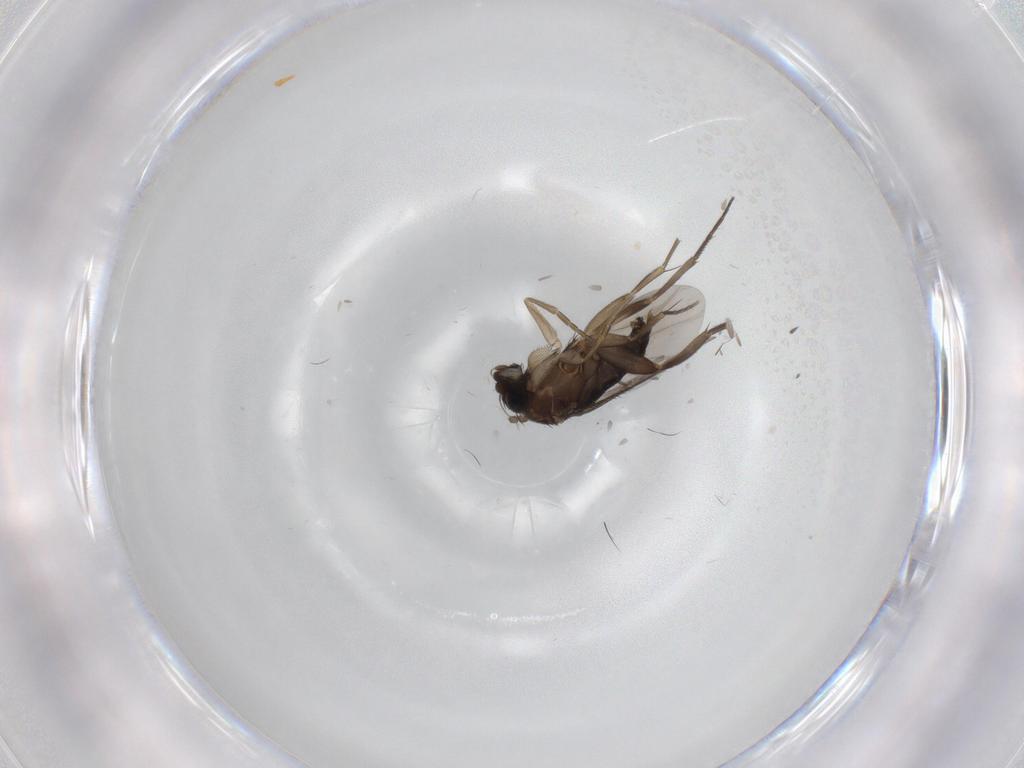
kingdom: Animalia
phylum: Arthropoda
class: Insecta
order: Diptera
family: Phoridae
